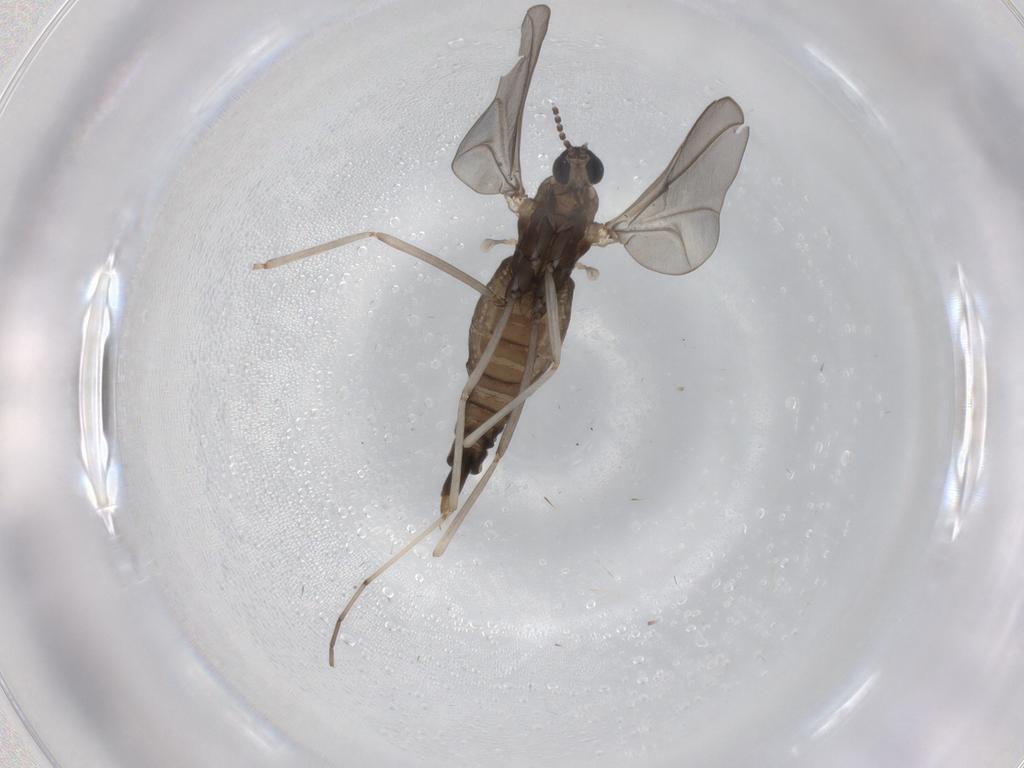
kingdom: Animalia
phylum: Arthropoda
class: Insecta
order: Diptera
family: Cecidomyiidae
